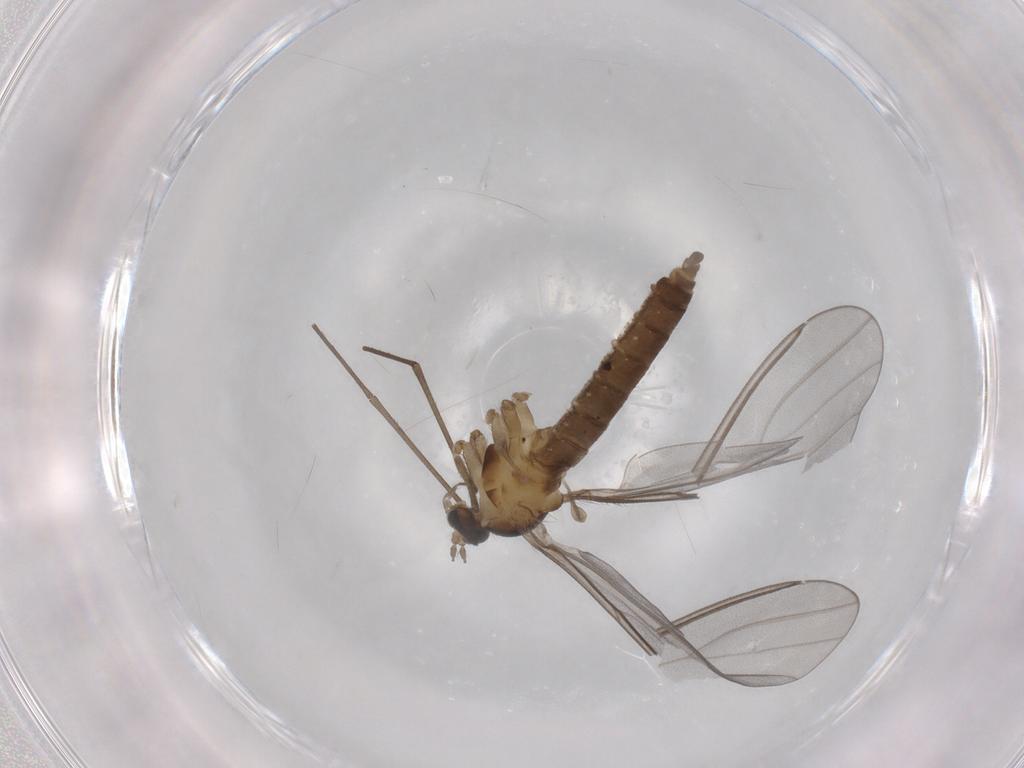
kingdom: Animalia
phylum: Arthropoda
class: Insecta
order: Diptera
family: Cecidomyiidae
